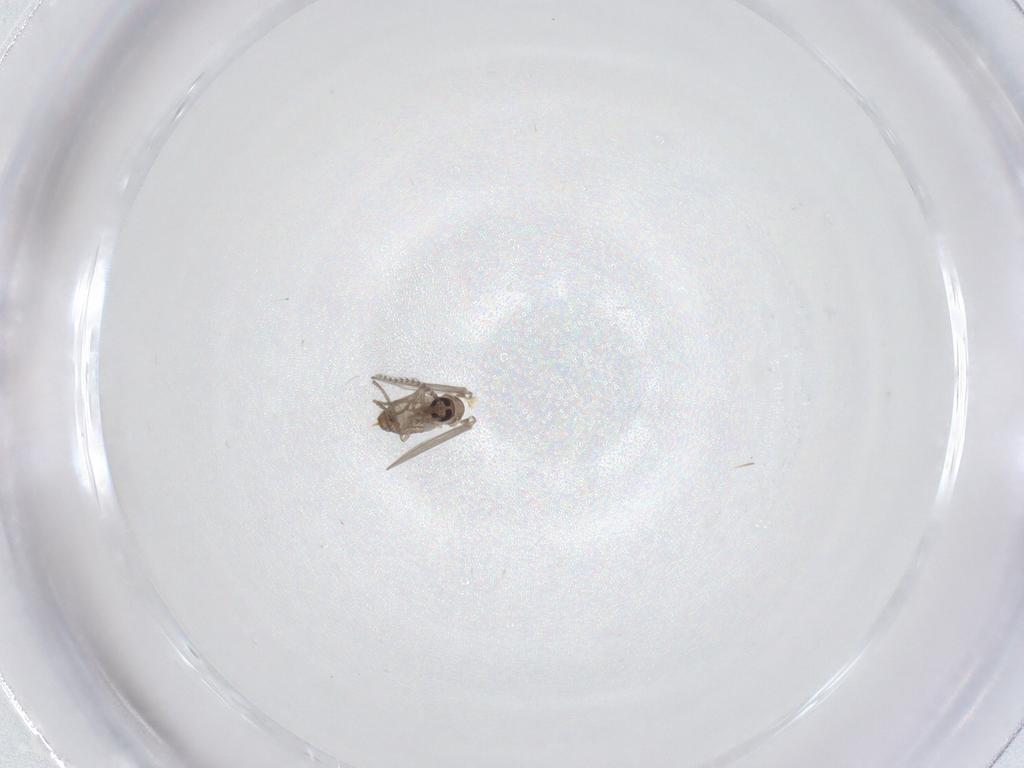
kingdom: Animalia
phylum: Arthropoda
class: Insecta
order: Diptera
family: Psychodidae
